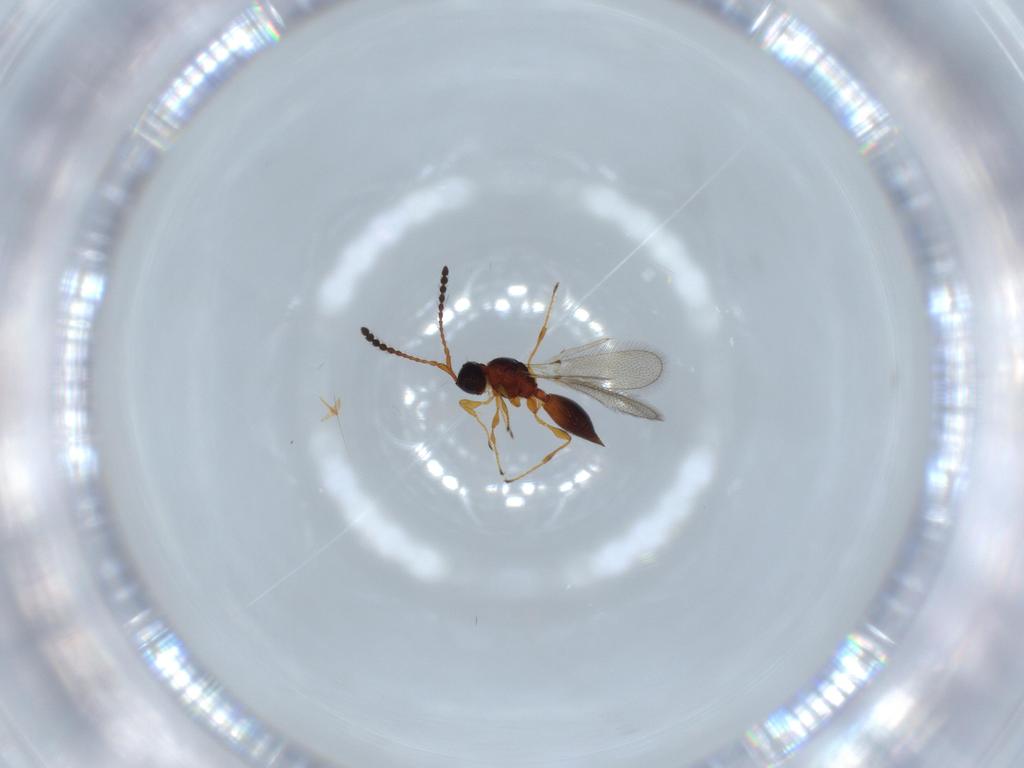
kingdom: Animalia
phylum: Arthropoda
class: Insecta
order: Hymenoptera
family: Diapriidae
